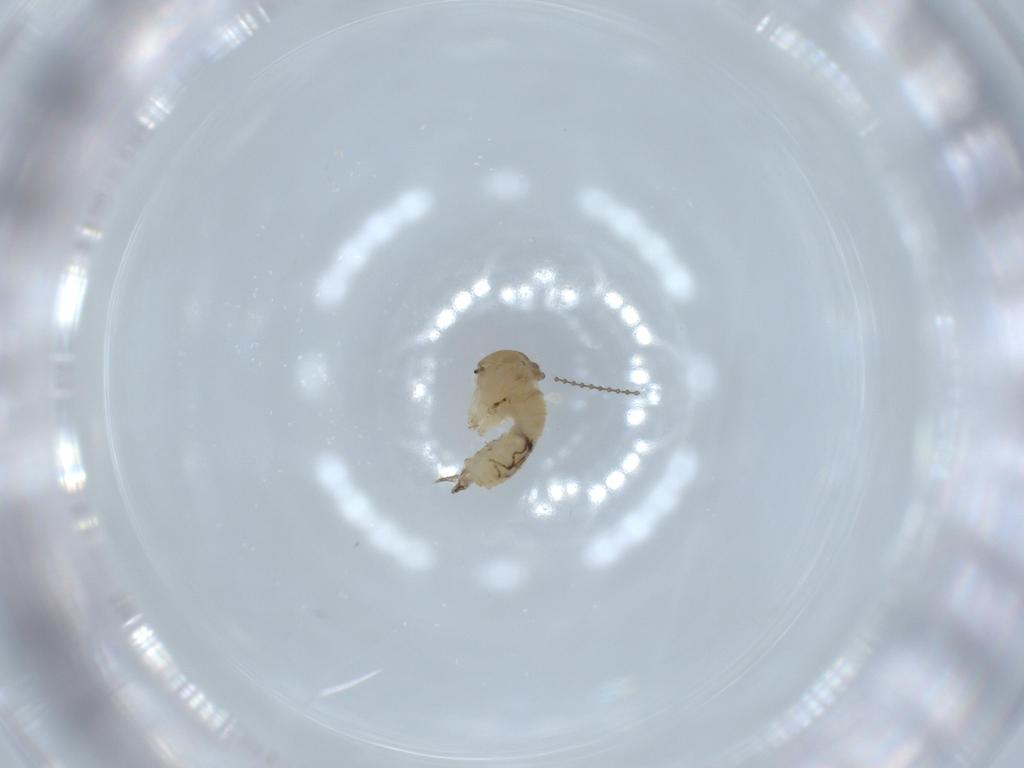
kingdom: Animalia
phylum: Arthropoda
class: Insecta
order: Diptera
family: Psychodidae
